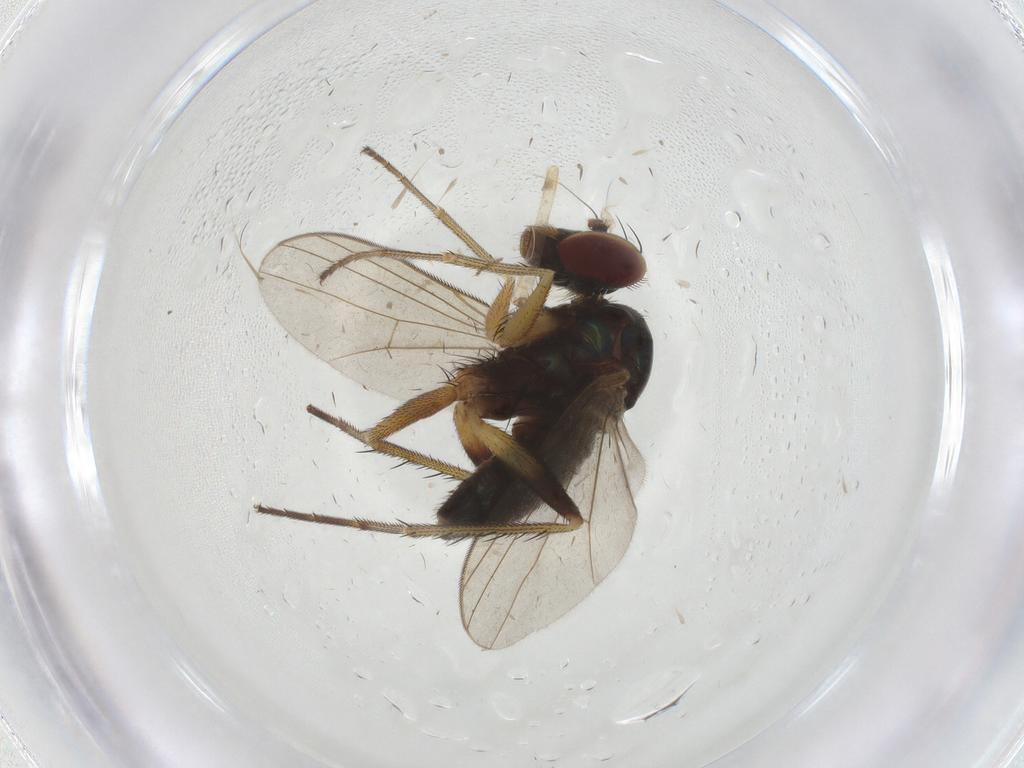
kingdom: Animalia
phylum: Arthropoda
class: Insecta
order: Diptera
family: Dolichopodidae
